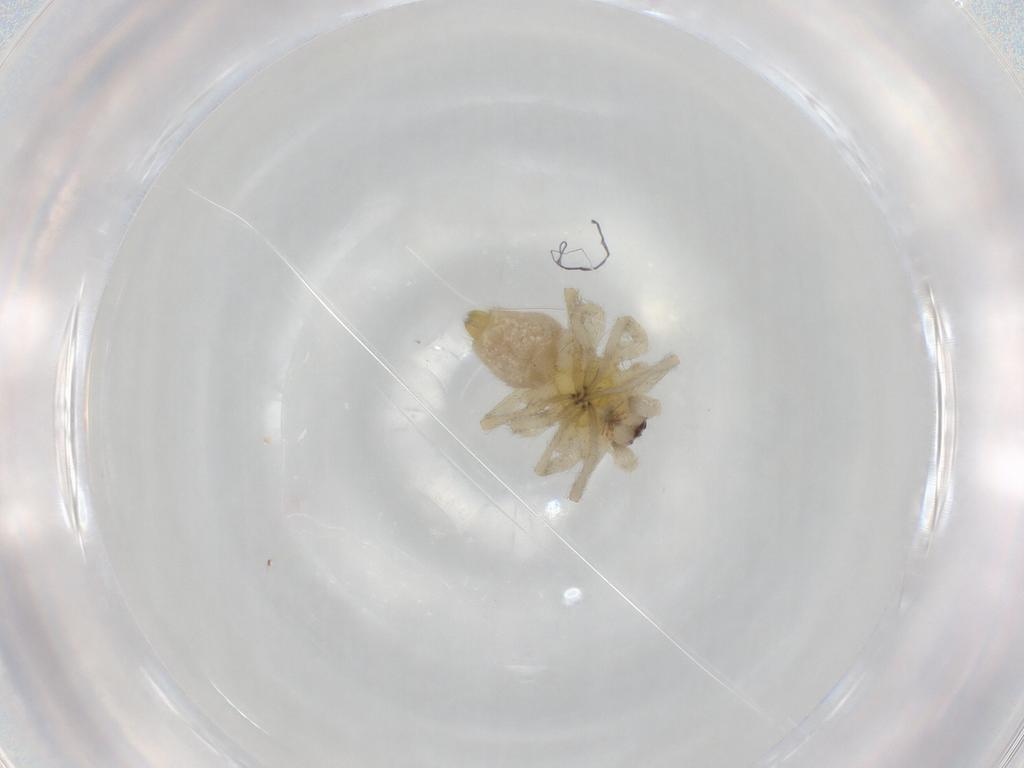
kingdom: Animalia
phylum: Arthropoda
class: Arachnida
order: Araneae
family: Cheiracanthiidae
